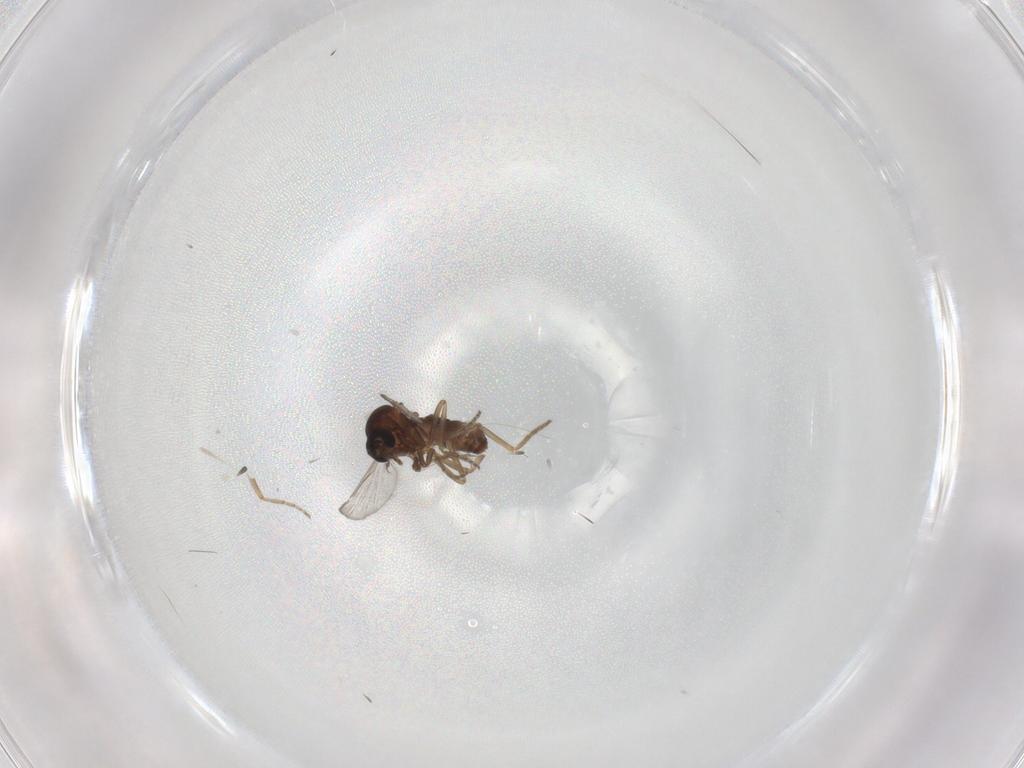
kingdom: Animalia
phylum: Arthropoda
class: Insecta
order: Diptera
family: Ceratopogonidae
